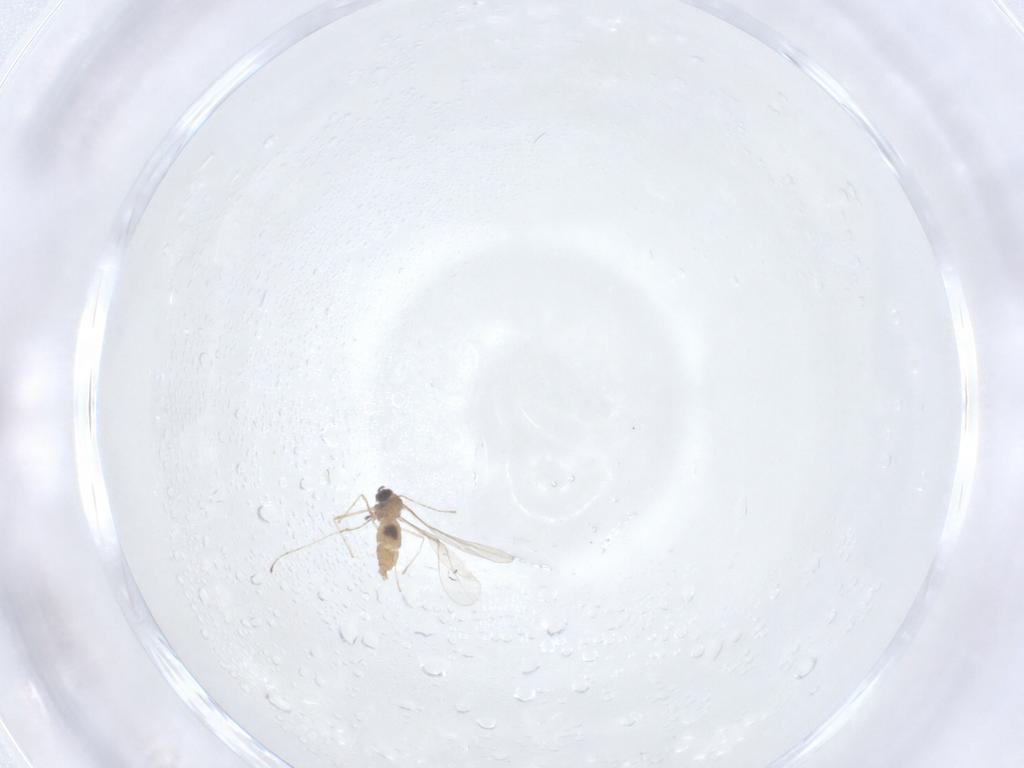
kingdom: Animalia
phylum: Arthropoda
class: Insecta
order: Diptera
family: Cecidomyiidae
